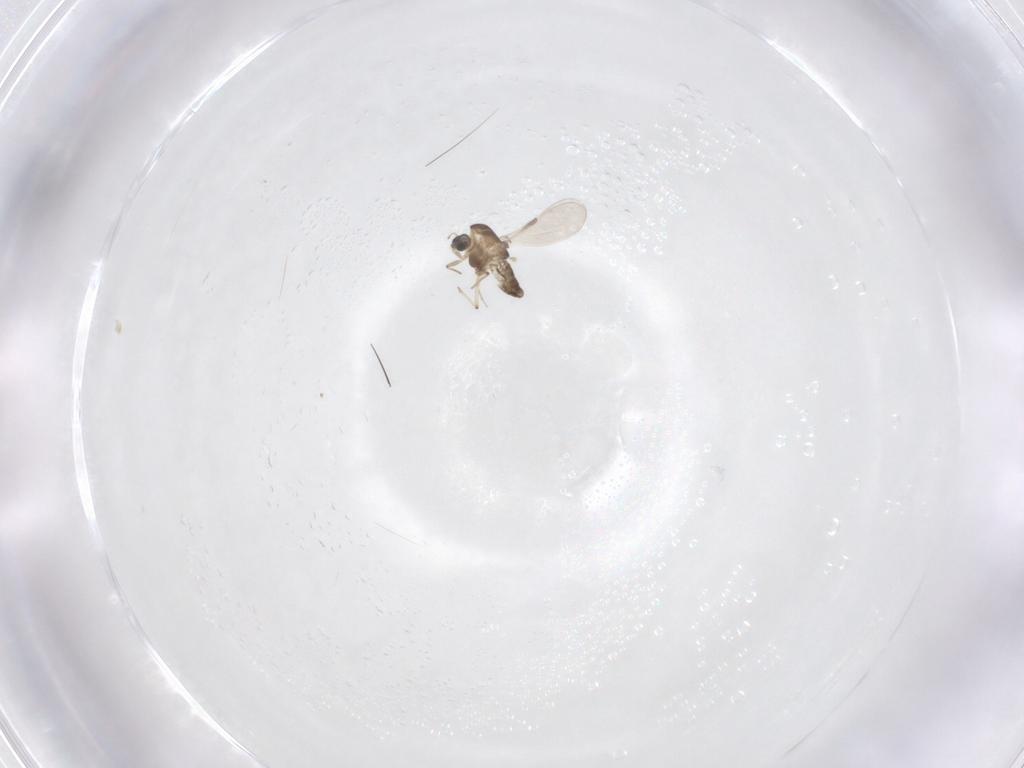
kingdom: Animalia
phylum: Arthropoda
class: Insecta
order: Diptera
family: Chironomidae
